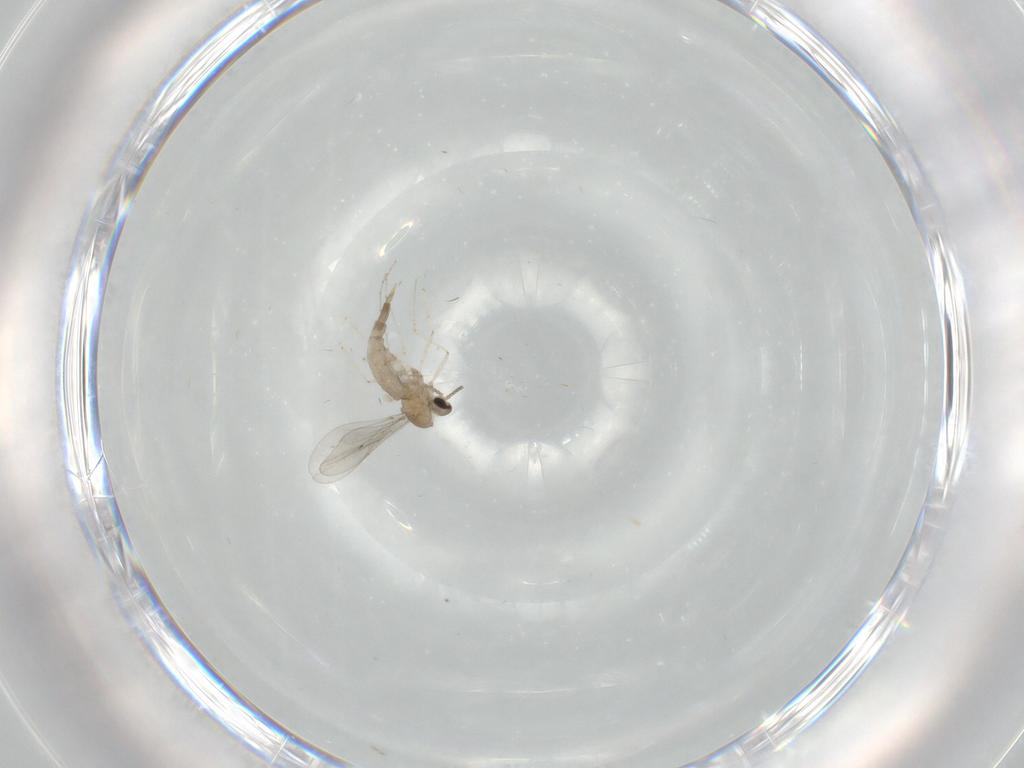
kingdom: Animalia
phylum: Arthropoda
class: Insecta
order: Diptera
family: Cecidomyiidae
